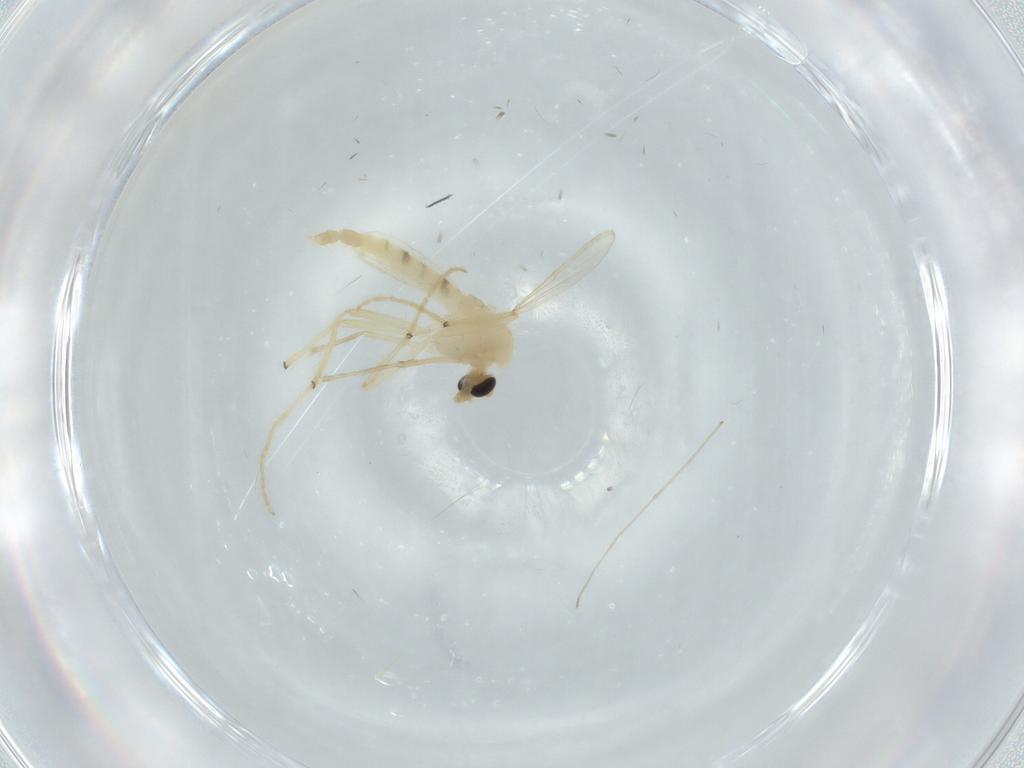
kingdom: Animalia
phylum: Arthropoda
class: Insecta
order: Diptera
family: Chironomidae
